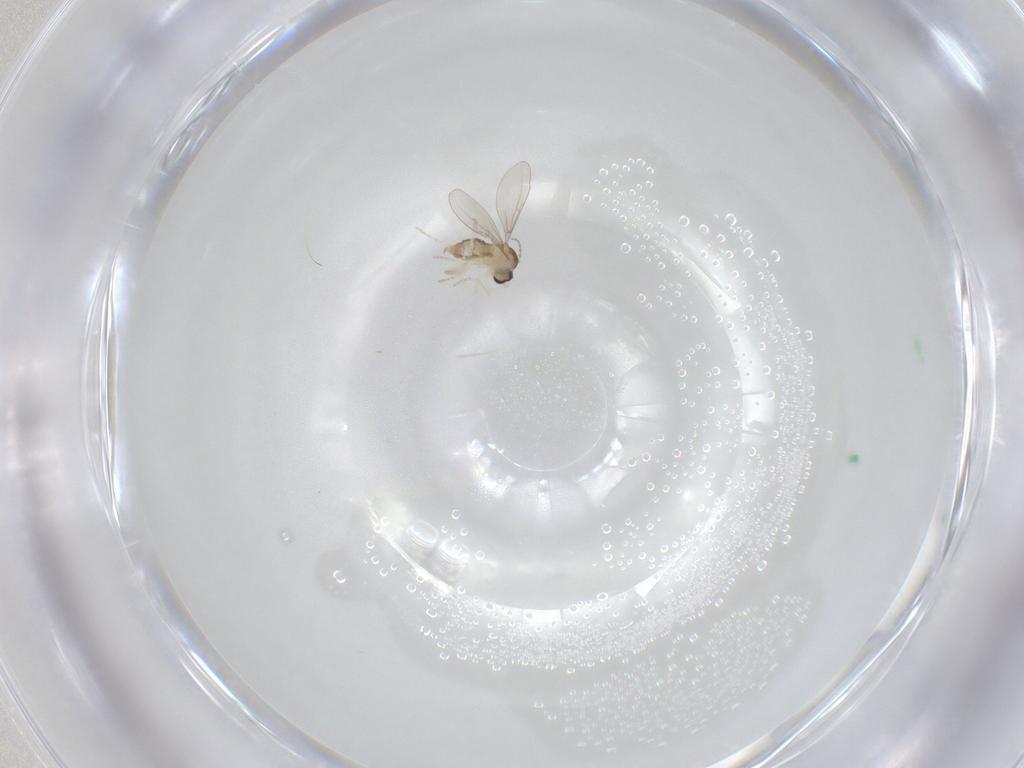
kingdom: Animalia
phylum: Arthropoda
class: Insecta
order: Diptera
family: Cecidomyiidae
